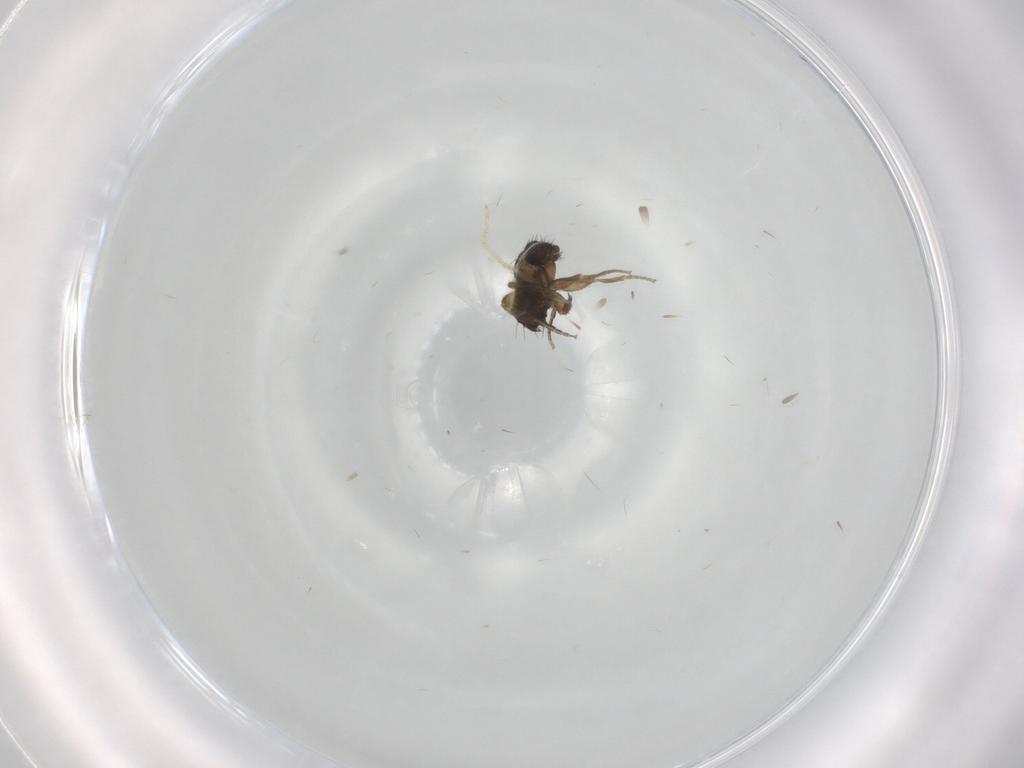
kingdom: Animalia
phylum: Arthropoda
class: Insecta
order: Diptera
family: Phoridae
